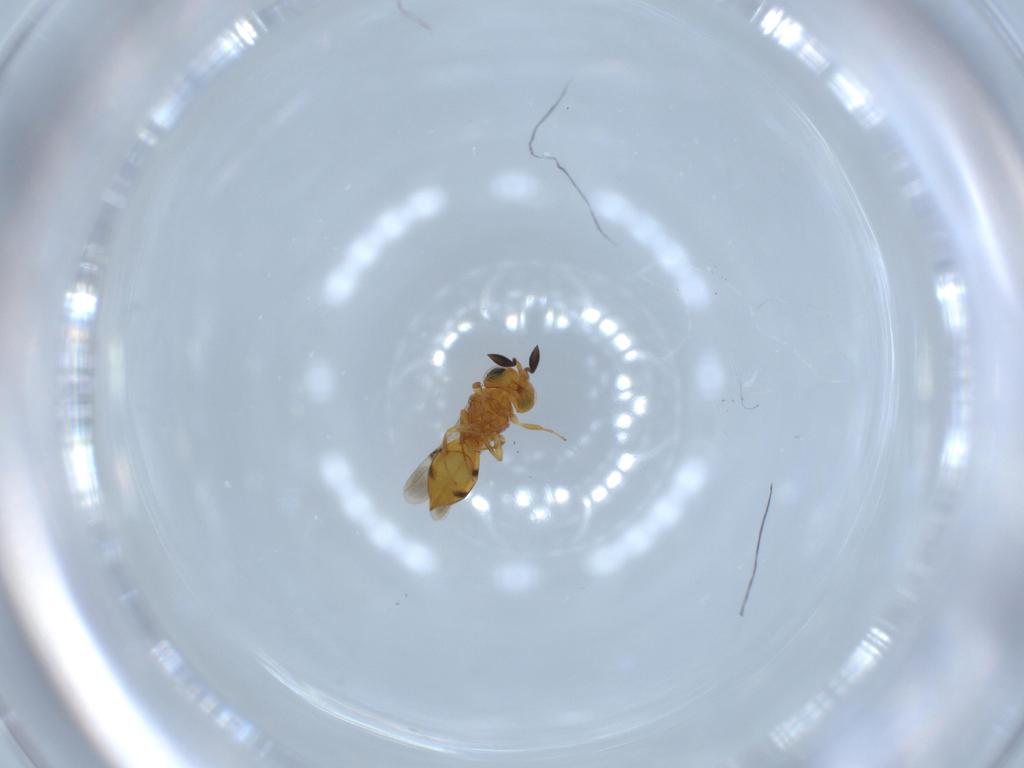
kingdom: Animalia
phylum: Arthropoda
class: Insecta
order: Hymenoptera
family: Scelionidae
